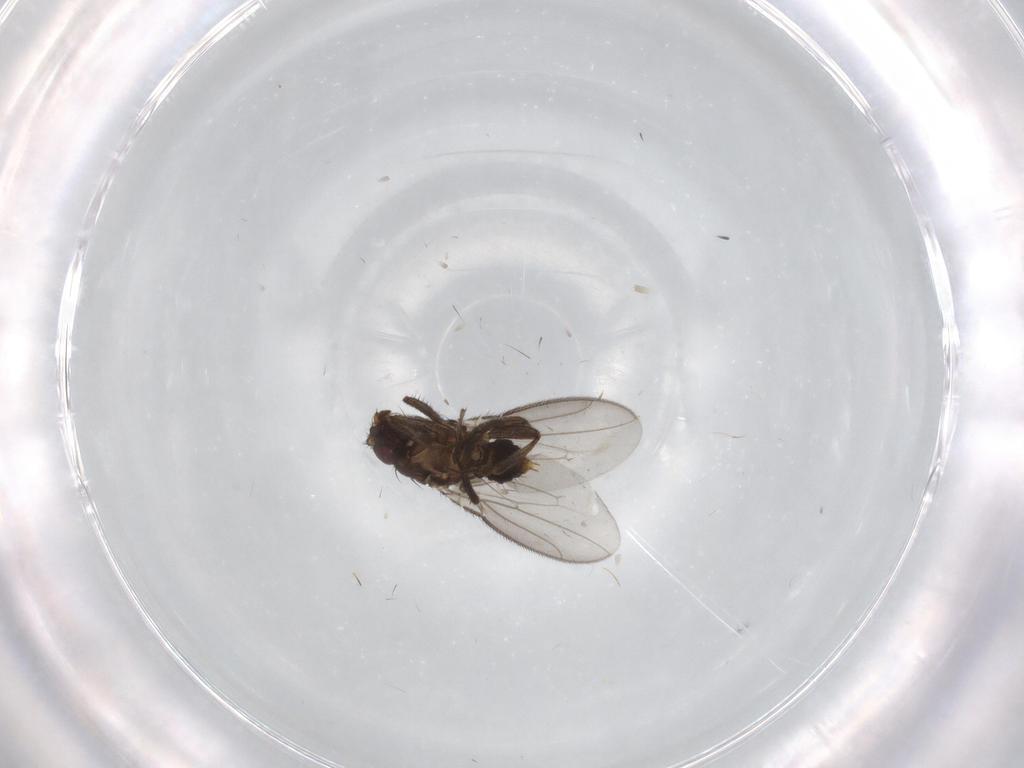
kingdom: Animalia
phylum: Arthropoda
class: Insecta
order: Diptera
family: Sphaeroceridae
